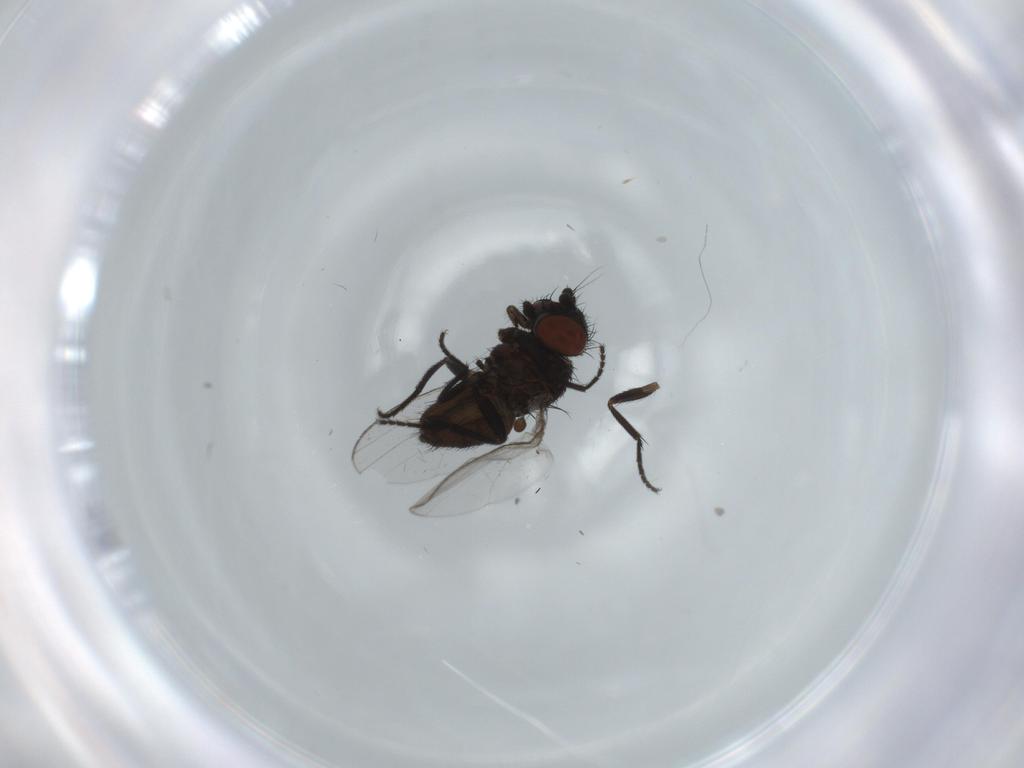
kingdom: Animalia
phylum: Arthropoda
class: Insecta
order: Diptera
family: Milichiidae
